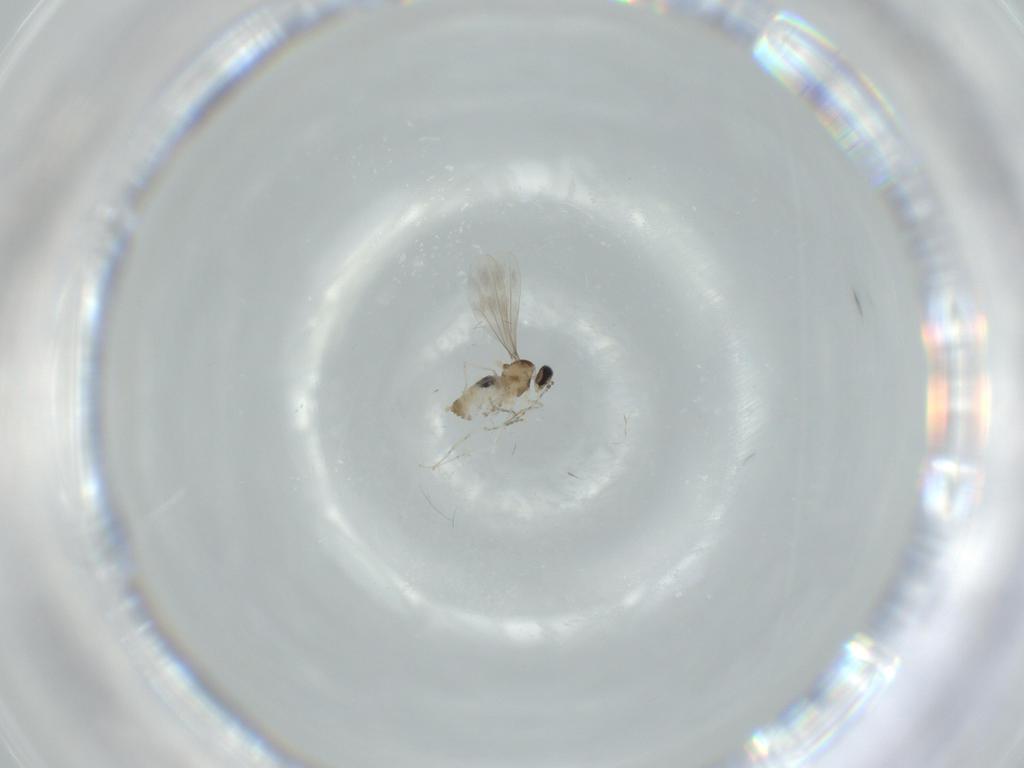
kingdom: Animalia
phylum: Arthropoda
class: Insecta
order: Diptera
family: Cecidomyiidae
